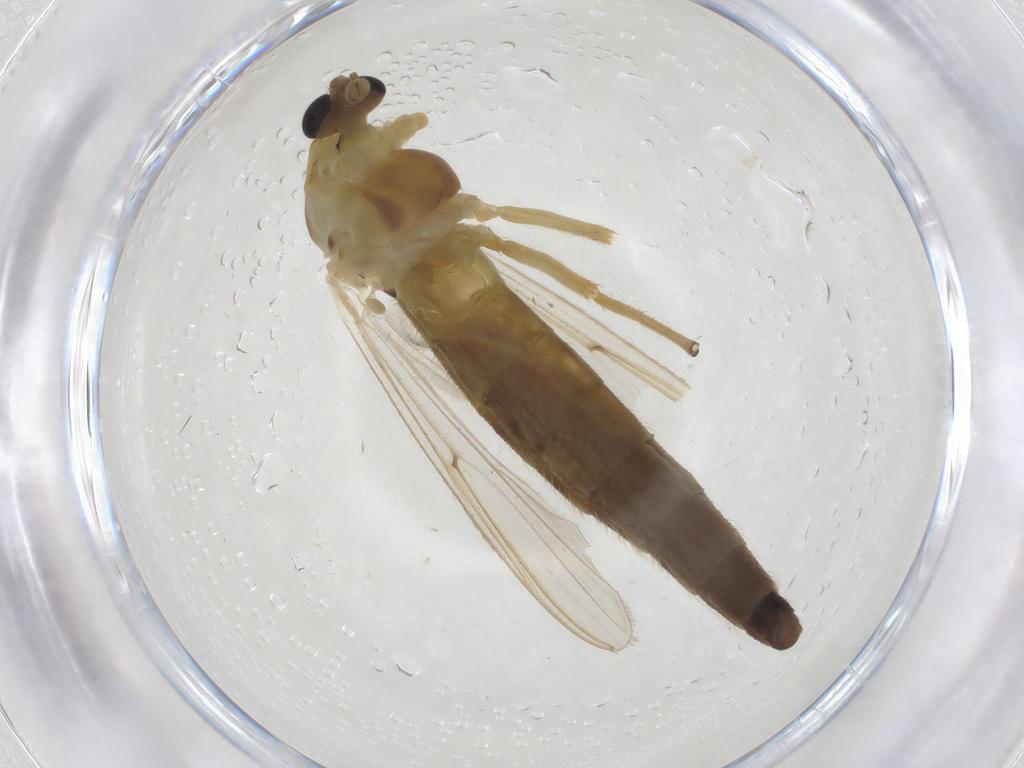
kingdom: Animalia
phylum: Arthropoda
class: Insecta
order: Diptera
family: Chironomidae
